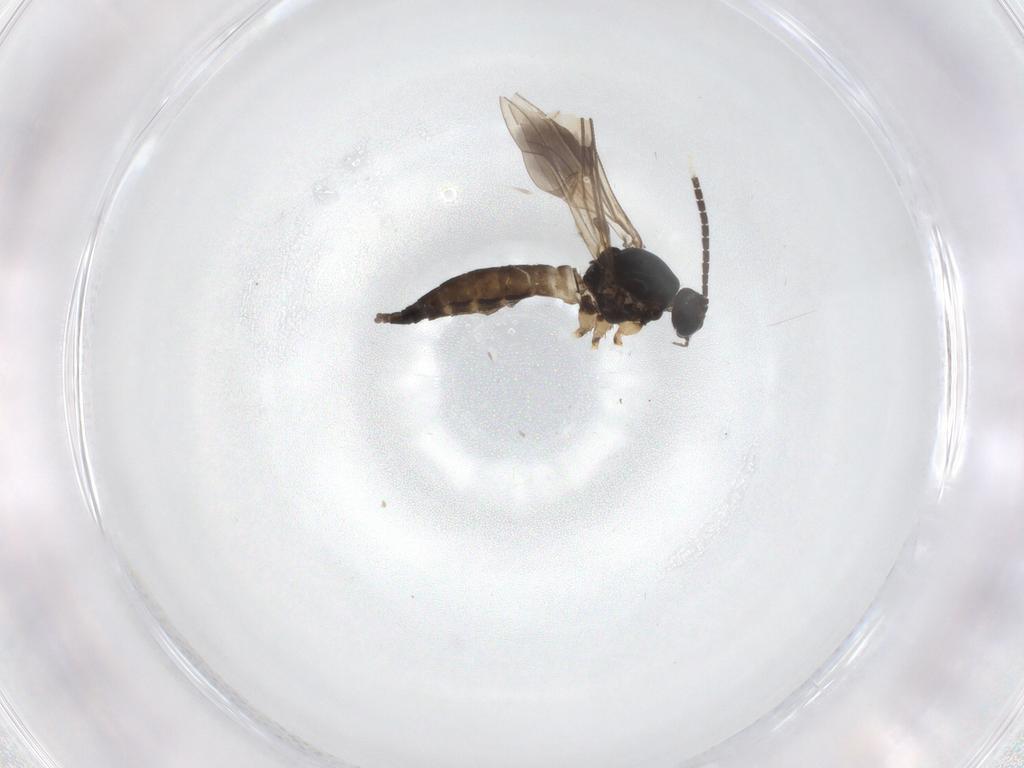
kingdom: Animalia
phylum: Arthropoda
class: Insecta
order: Diptera
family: Sciaridae
